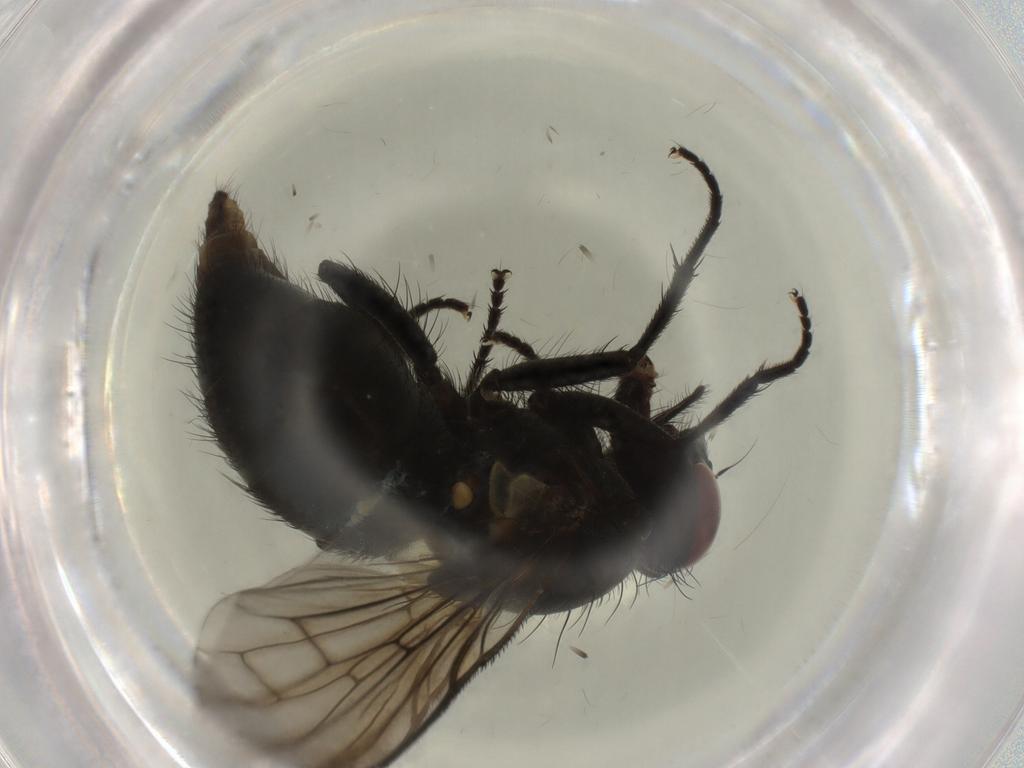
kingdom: Animalia
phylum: Arthropoda
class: Insecta
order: Diptera
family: Muscidae
